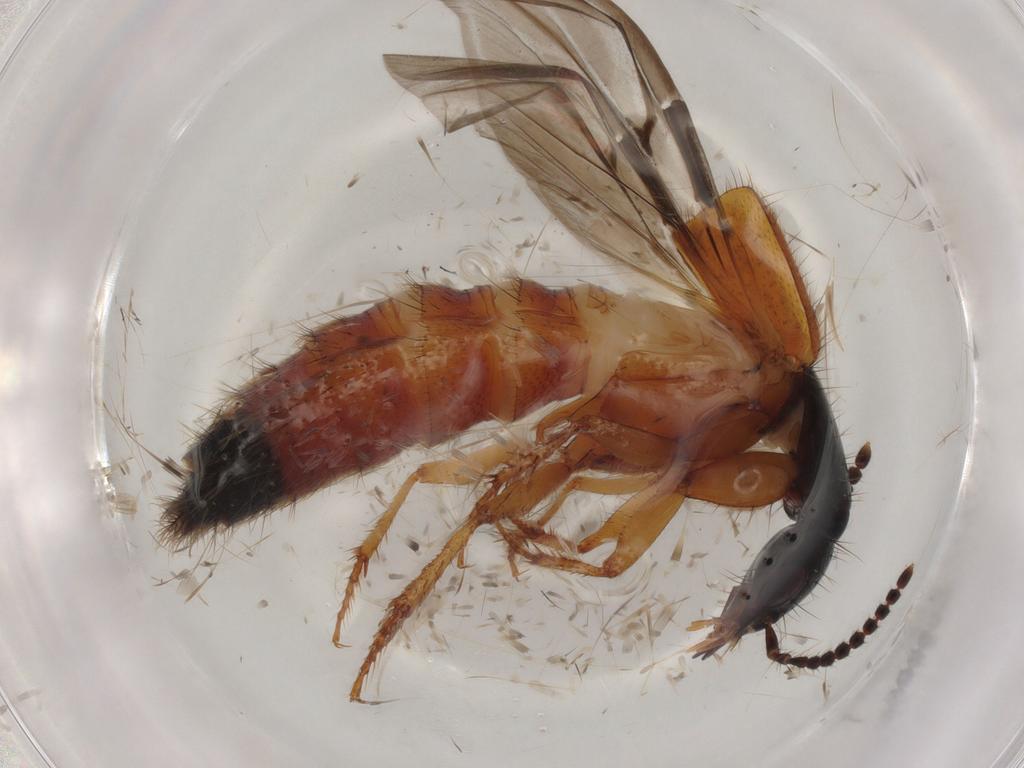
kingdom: Animalia
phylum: Arthropoda
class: Insecta
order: Coleoptera
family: Staphylinidae
